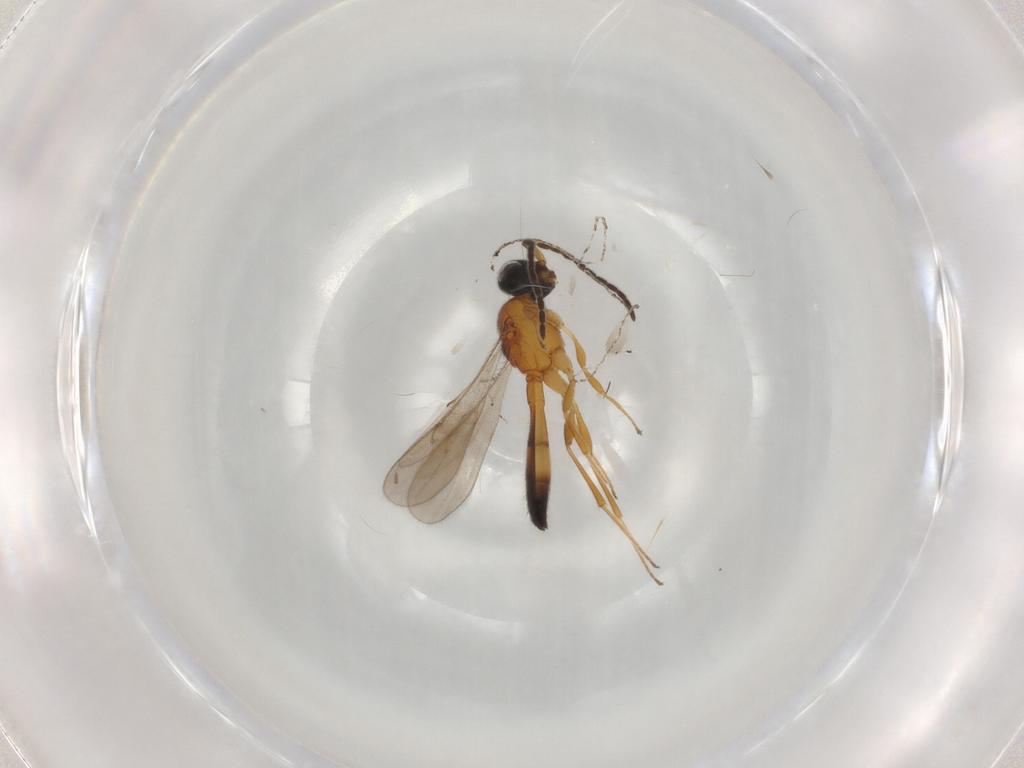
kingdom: Animalia
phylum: Arthropoda
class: Insecta
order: Hymenoptera
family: Scelionidae
